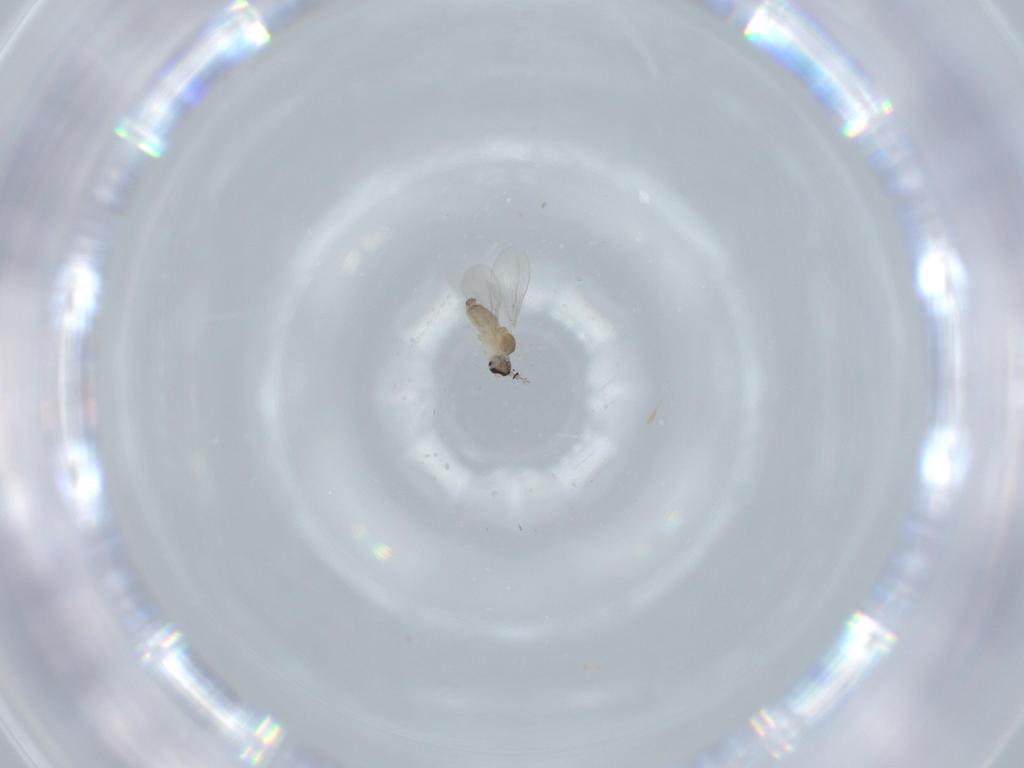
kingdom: Animalia
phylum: Arthropoda
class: Insecta
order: Diptera
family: Cecidomyiidae
